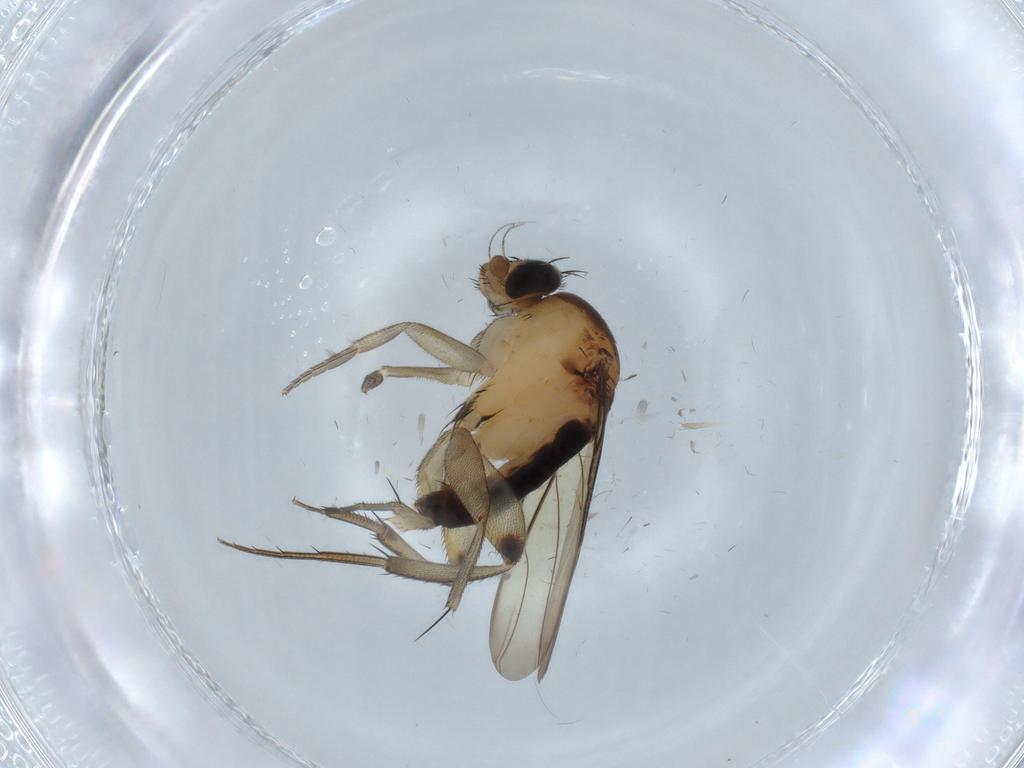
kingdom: Animalia
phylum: Arthropoda
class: Insecta
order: Diptera
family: Phoridae
